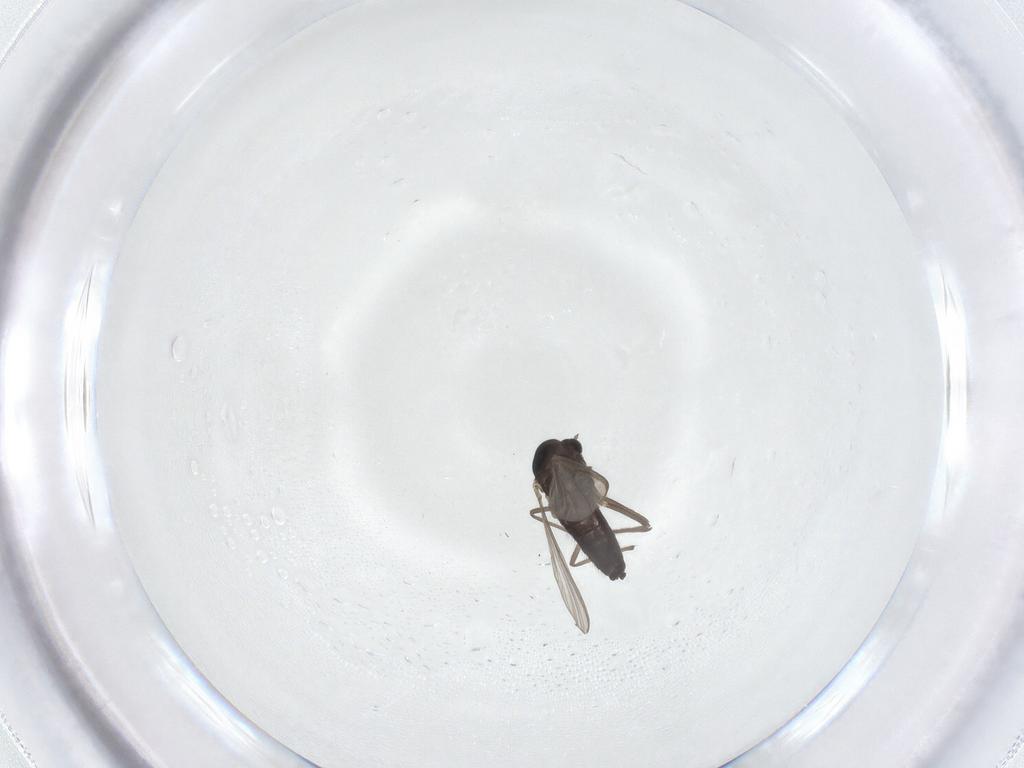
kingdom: Animalia
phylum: Arthropoda
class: Insecta
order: Diptera
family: Chironomidae
